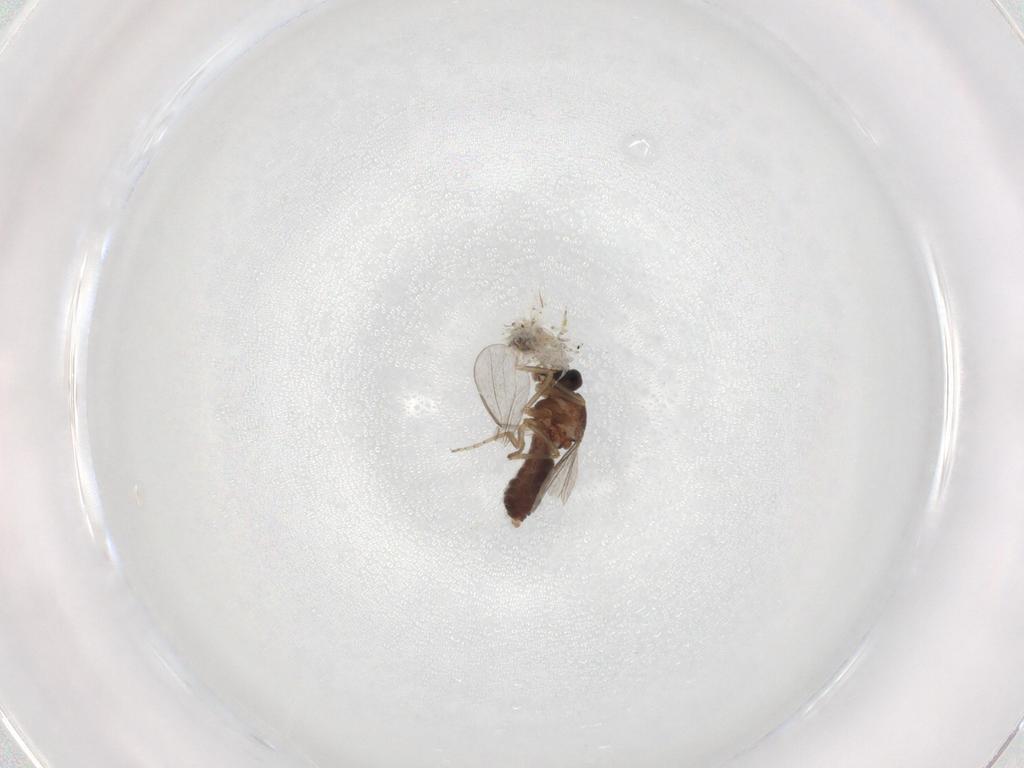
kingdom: Animalia
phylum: Arthropoda
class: Insecta
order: Diptera
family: Ceratopogonidae
